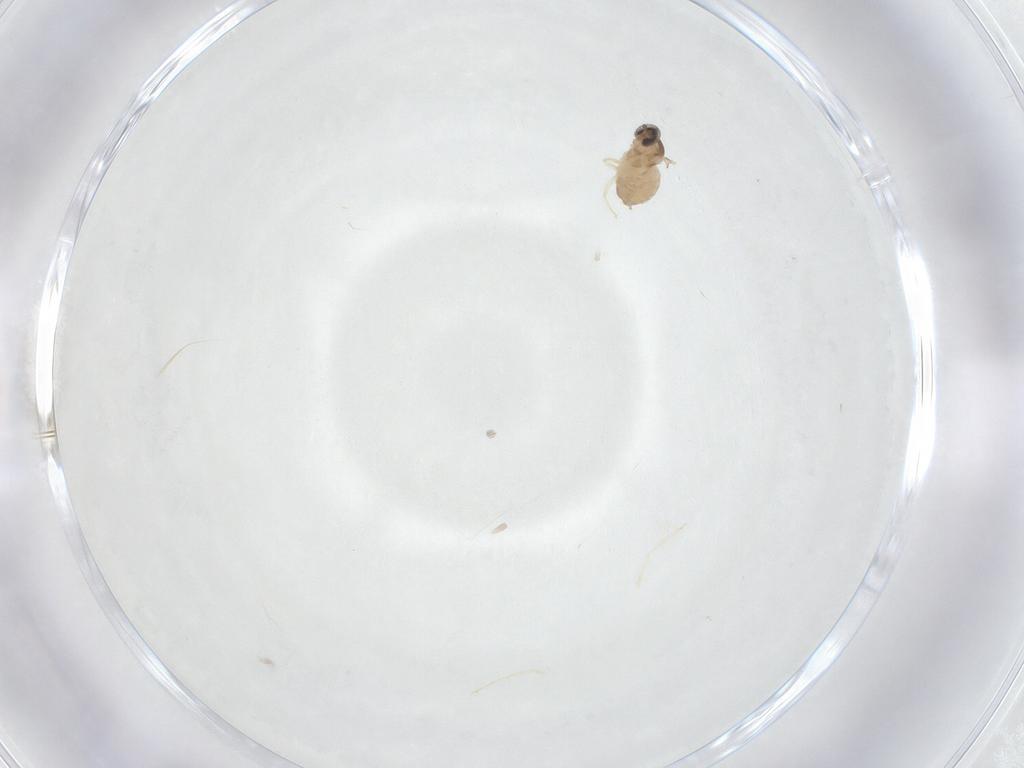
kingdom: Animalia
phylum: Arthropoda
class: Insecta
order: Diptera
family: Cecidomyiidae
